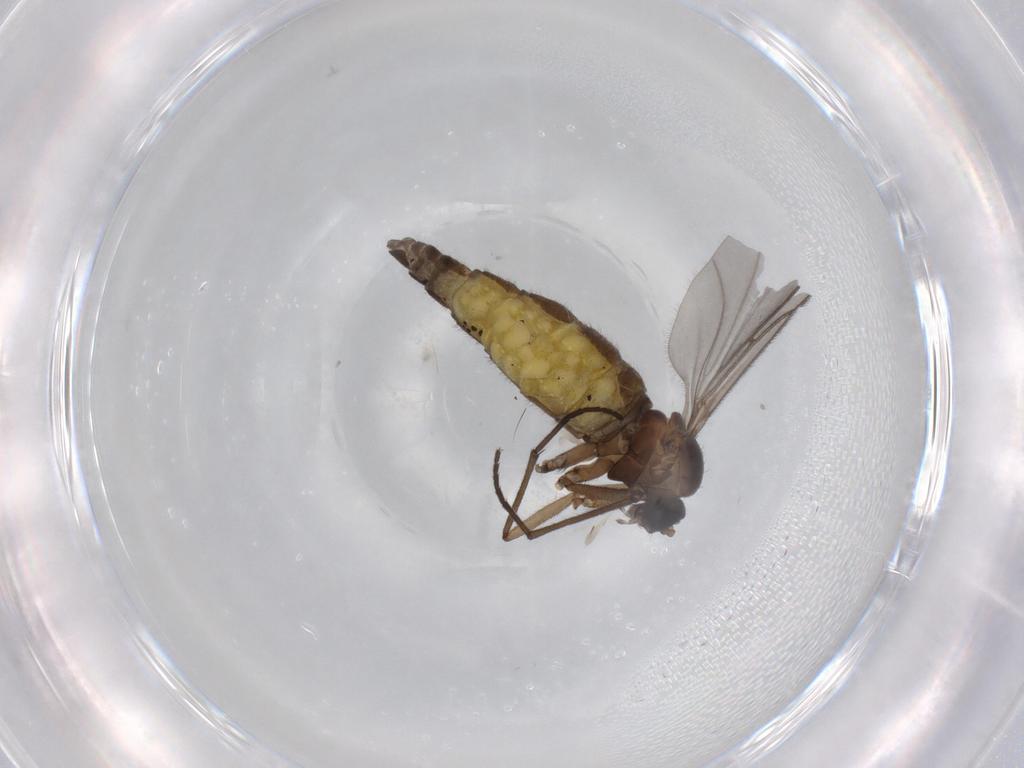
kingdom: Animalia
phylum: Arthropoda
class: Insecta
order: Diptera
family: Sciaridae
